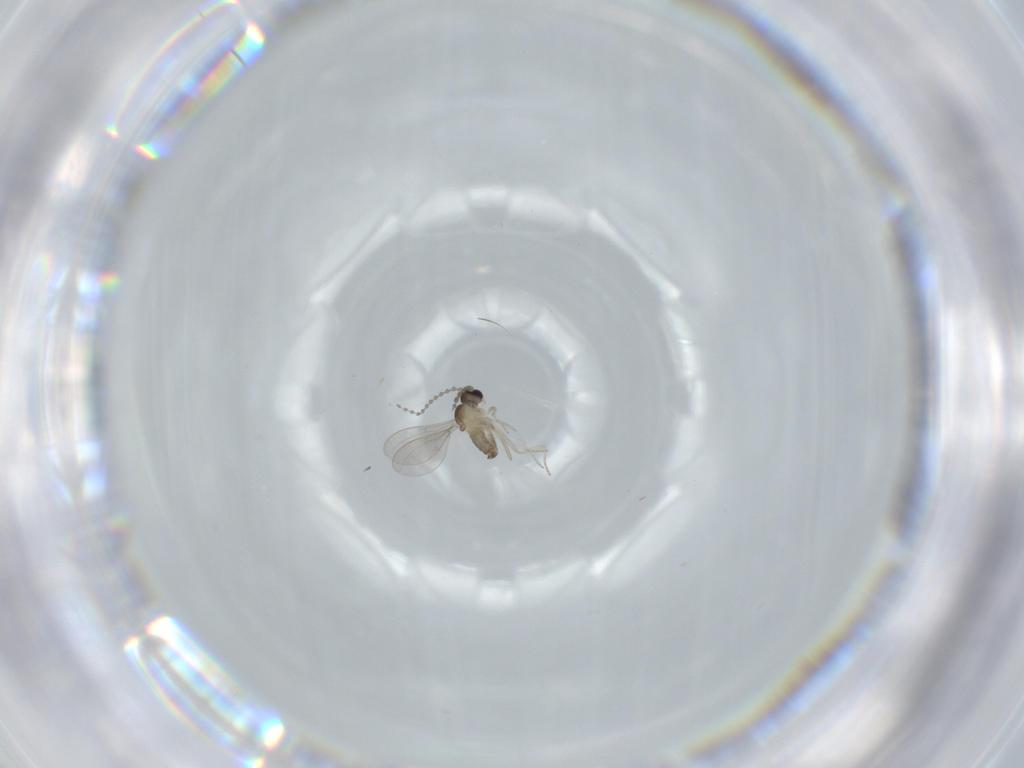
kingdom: Animalia
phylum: Arthropoda
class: Insecta
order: Diptera
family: Cecidomyiidae
